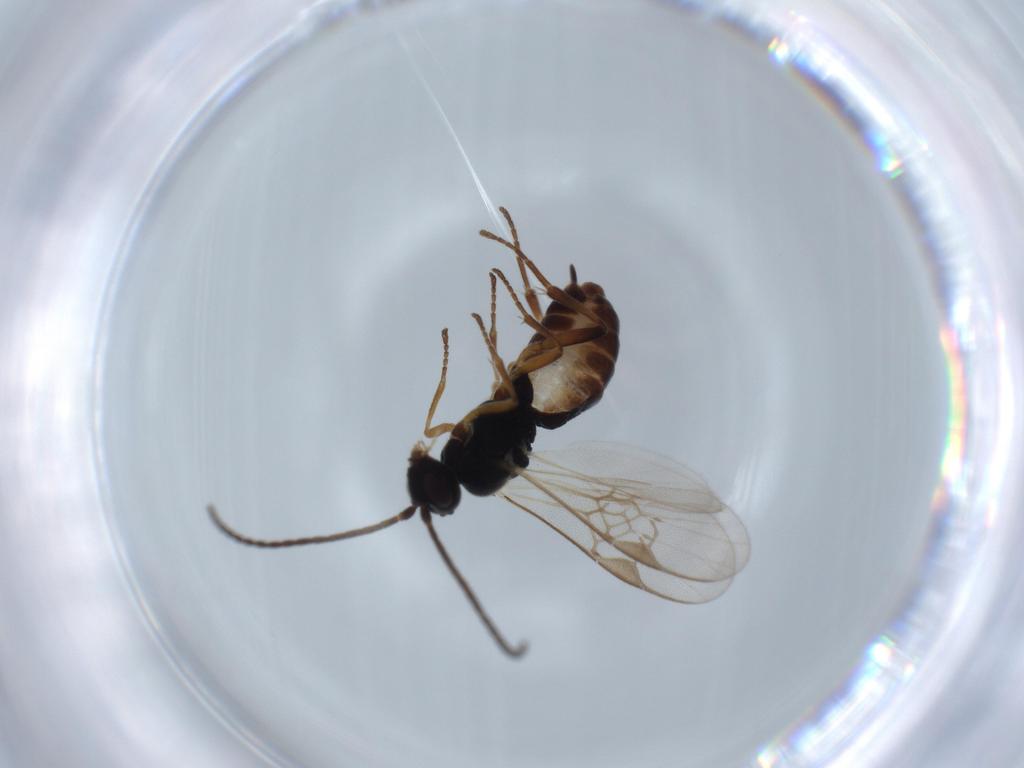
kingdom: Animalia
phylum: Arthropoda
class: Insecta
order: Hymenoptera
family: Braconidae
